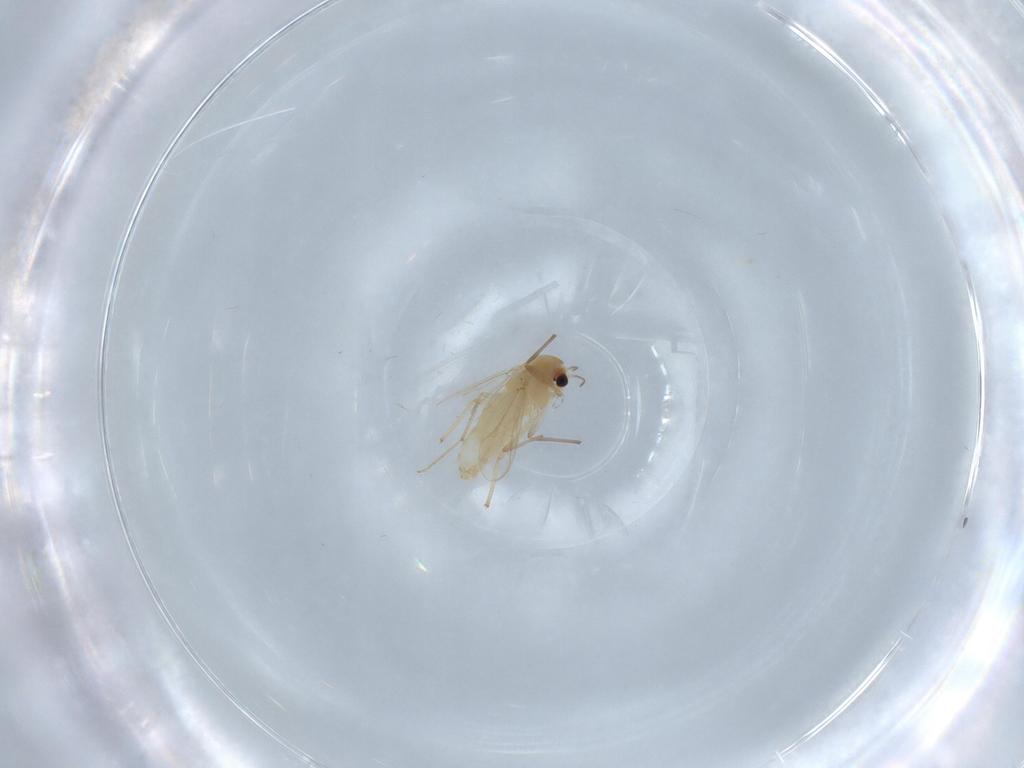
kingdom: Animalia
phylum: Arthropoda
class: Insecta
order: Diptera
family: Chironomidae
